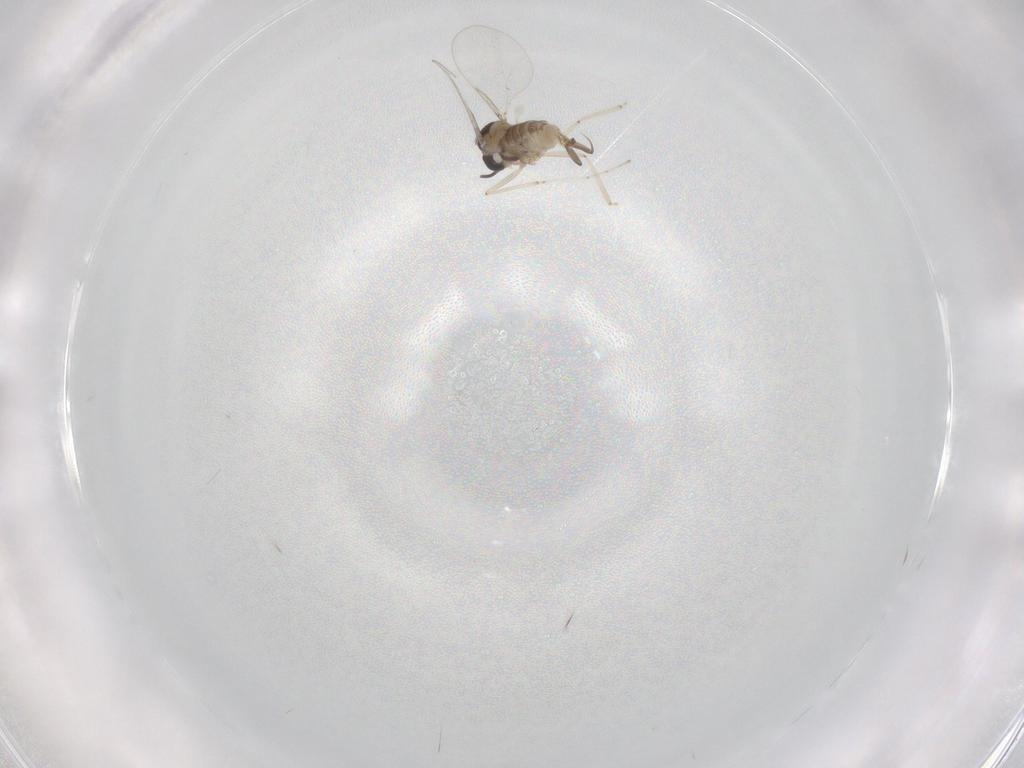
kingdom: Animalia
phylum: Arthropoda
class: Insecta
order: Diptera
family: Cecidomyiidae
